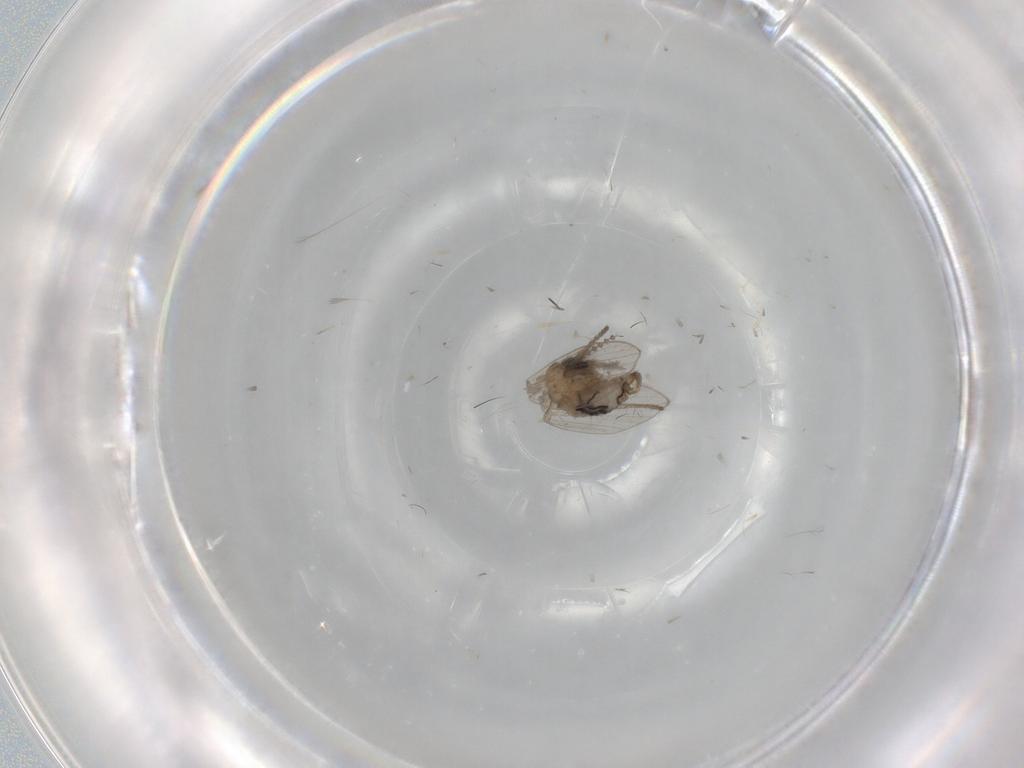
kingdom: Animalia
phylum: Arthropoda
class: Insecta
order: Diptera
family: Psychodidae
